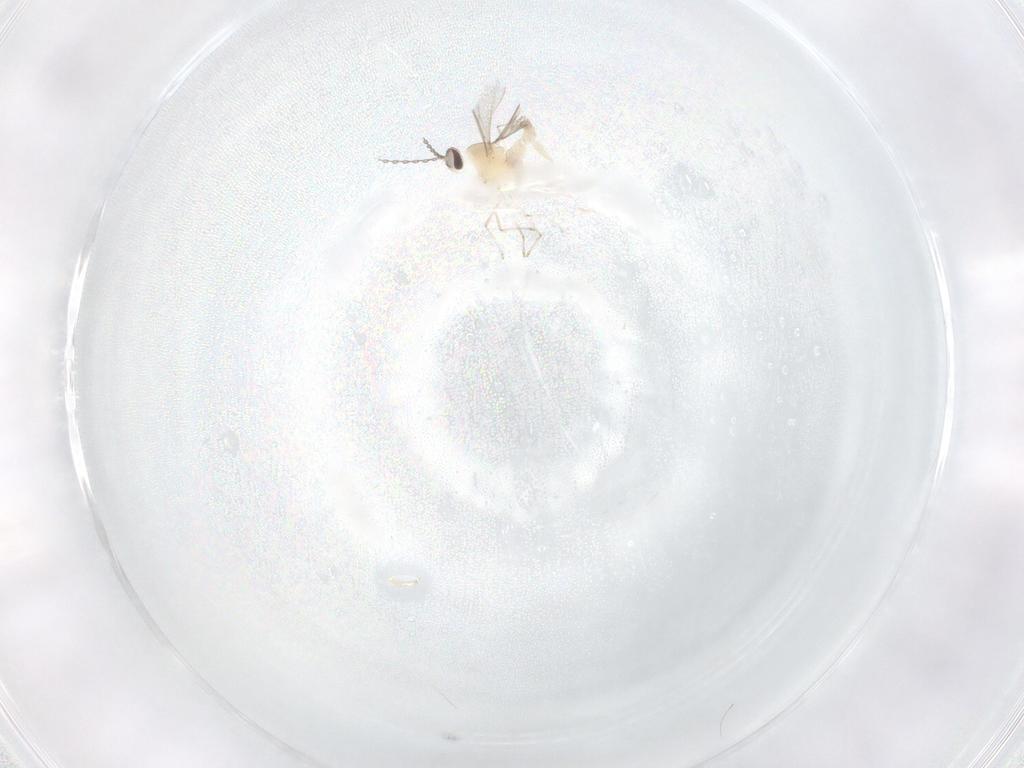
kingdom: Animalia
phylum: Arthropoda
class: Insecta
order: Diptera
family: Cecidomyiidae
